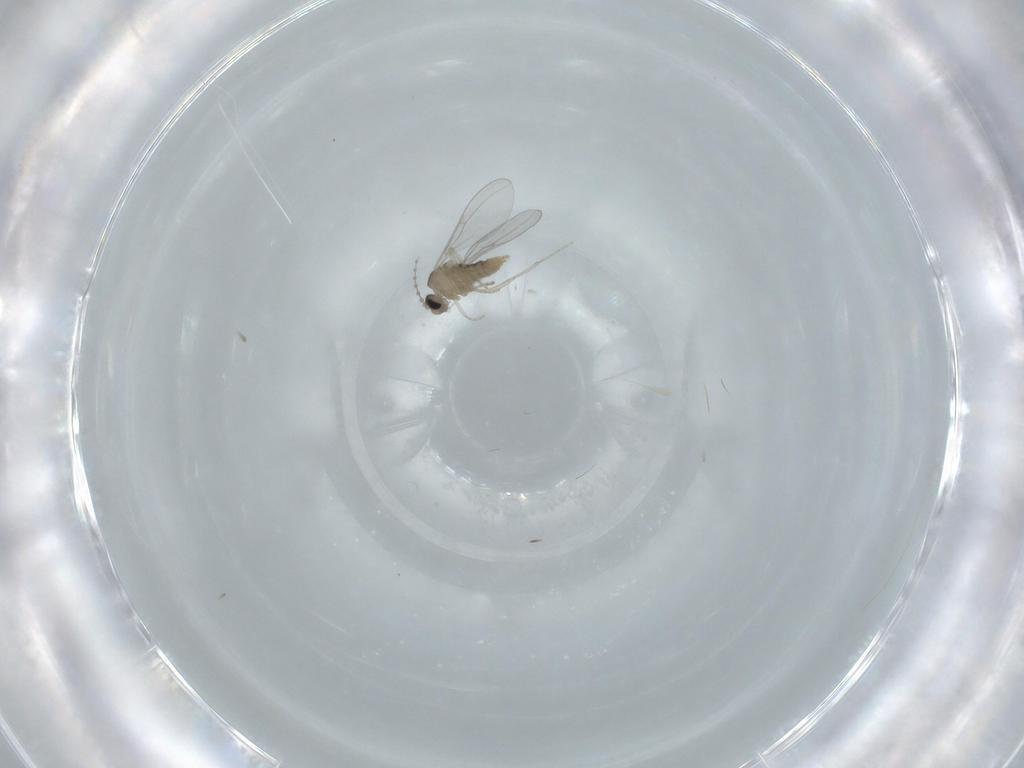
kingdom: Animalia
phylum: Arthropoda
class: Insecta
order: Diptera
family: Cecidomyiidae
